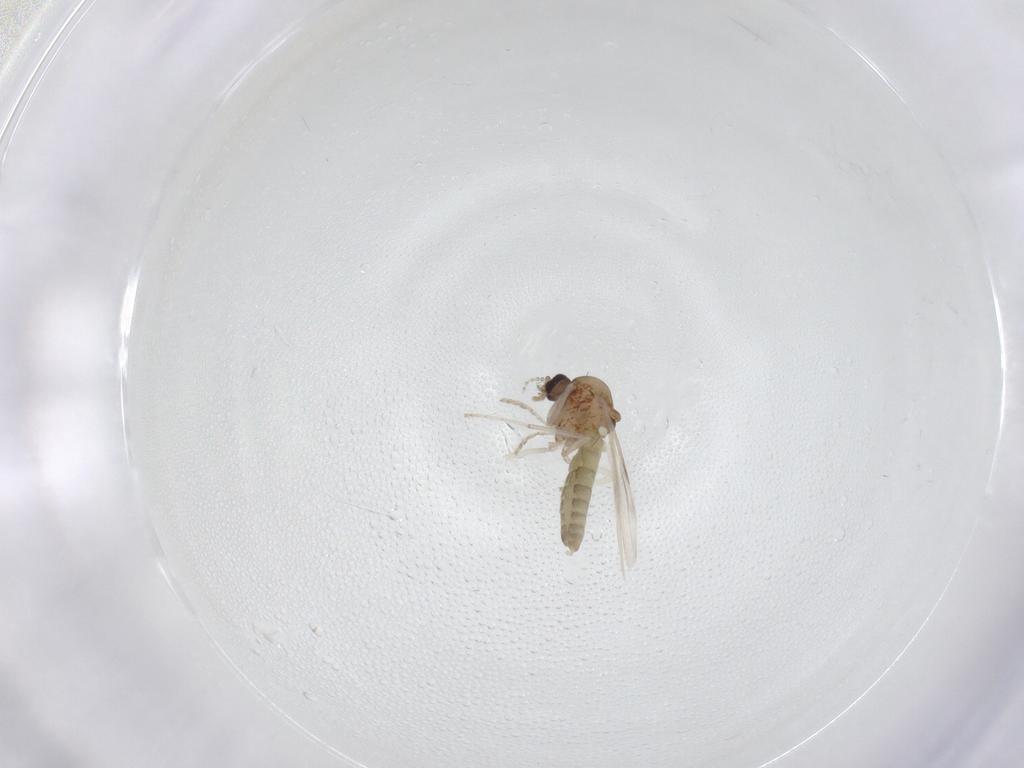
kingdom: Animalia
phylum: Arthropoda
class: Insecta
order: Diptera
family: Ceratopogonidae
